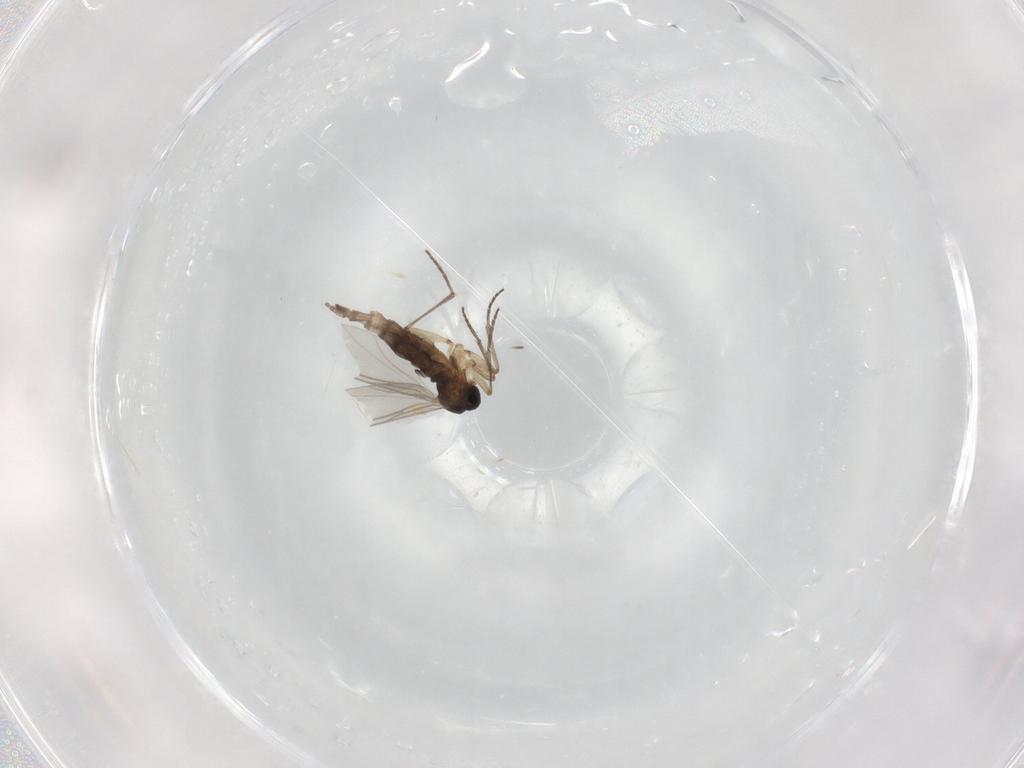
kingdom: Animalia
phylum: Arthropoda
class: Insecta
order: Diptera
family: Sciaridae
